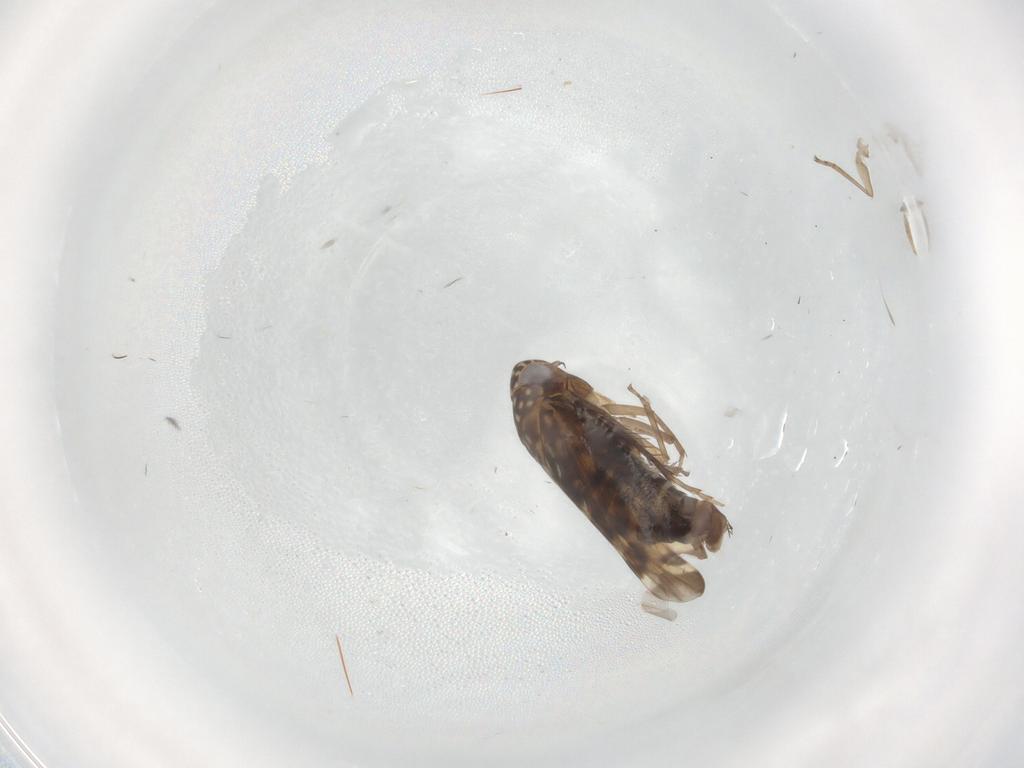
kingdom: Animalia
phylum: Arthropoda
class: Insecta
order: Hemiptera
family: Cicadellidae
